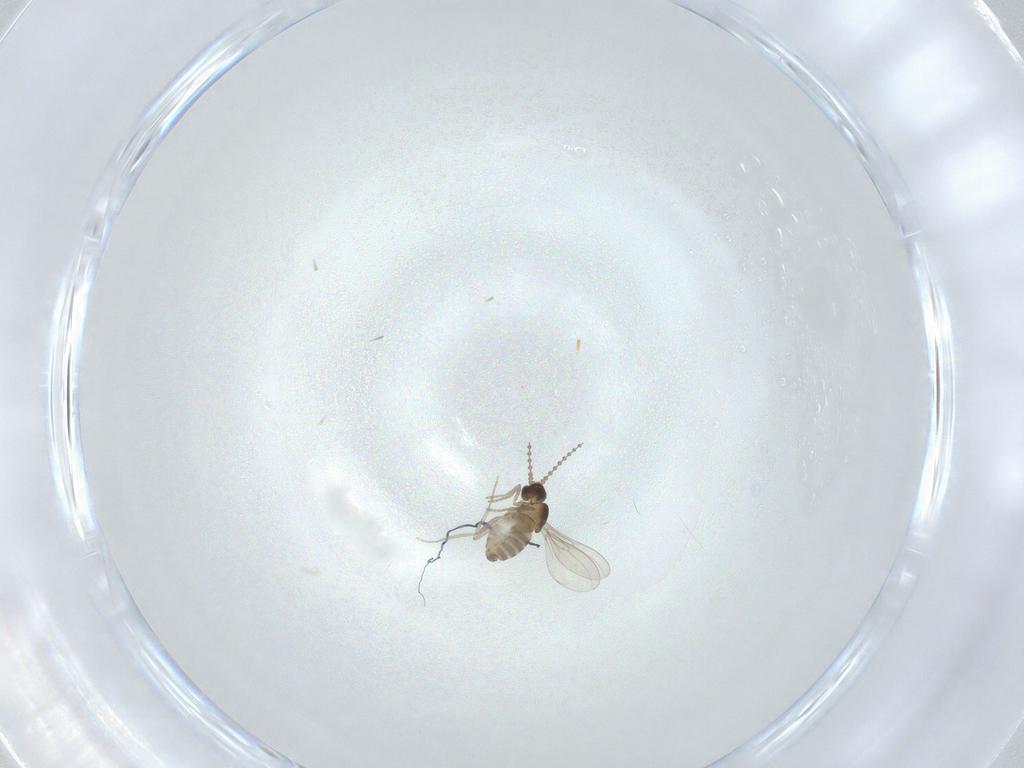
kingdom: Animalia
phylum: Arthropoda
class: Insecta
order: Diptera
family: Cecidomyiidae
